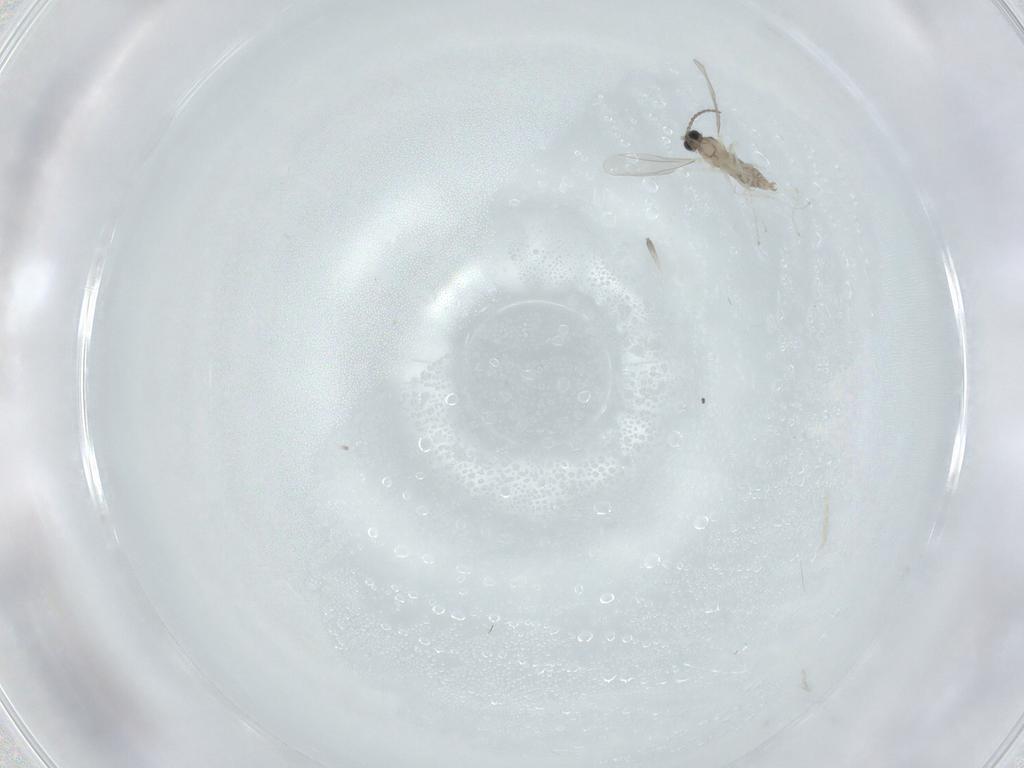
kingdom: Animalia
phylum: Arthropoda
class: Insecta
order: Diptera
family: Cecidomyiidae
